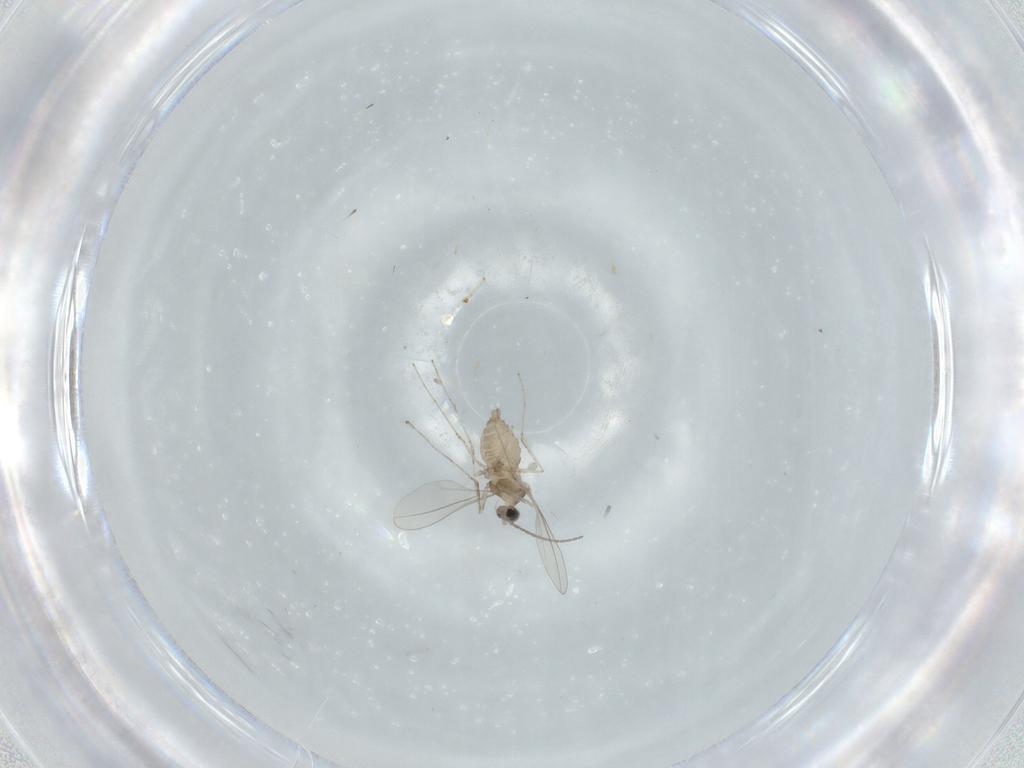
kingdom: Animalia
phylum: Arthropoda
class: Insecta
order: Diptera
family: Cecidomyiidae
